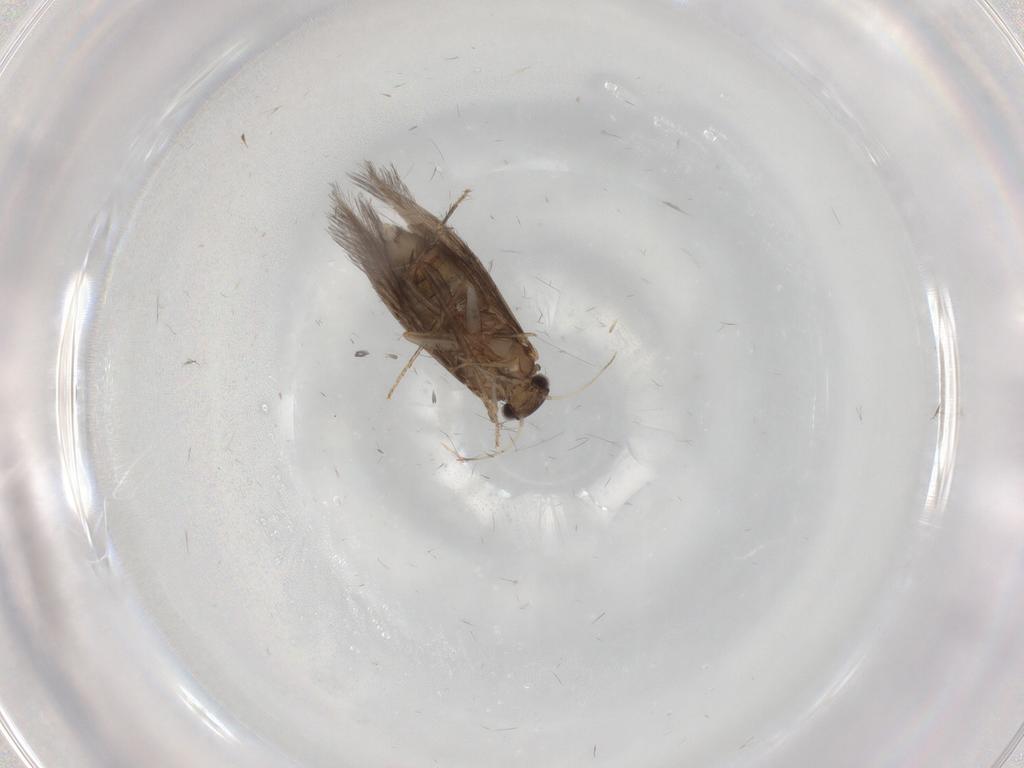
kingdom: Animalia
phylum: Arthropoda
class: Insecta
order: Trichoptera
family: Hydroptilidae
